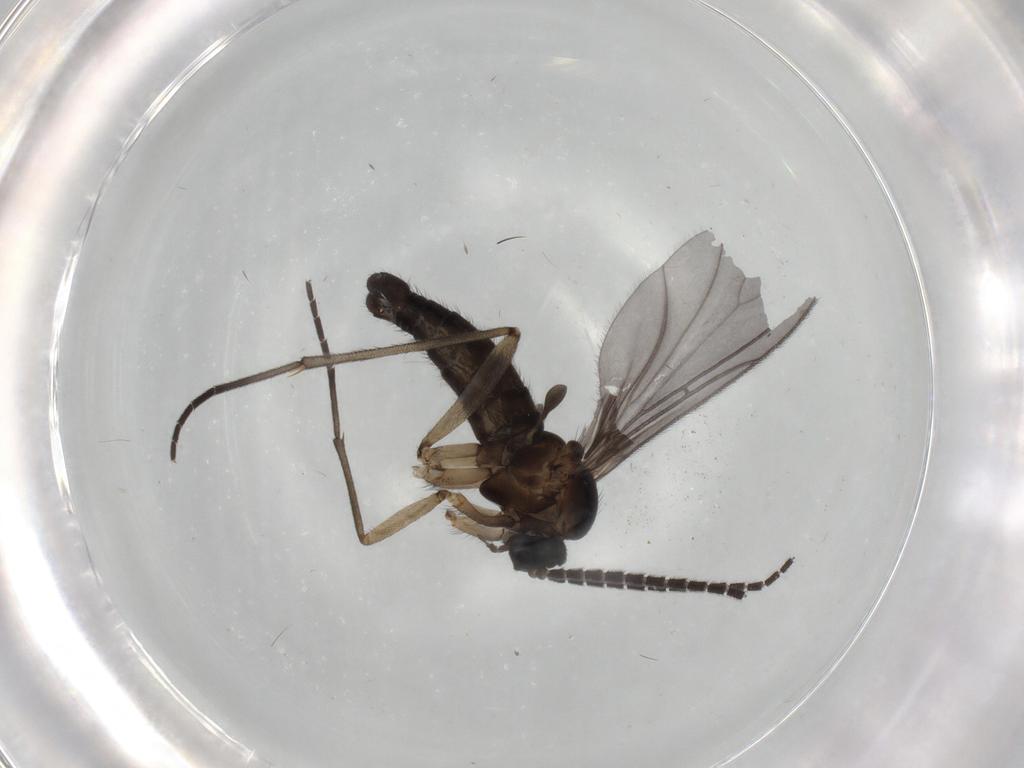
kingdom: Animalia
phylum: Arthropoda
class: Insecta
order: Diptera
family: Sciaridae
